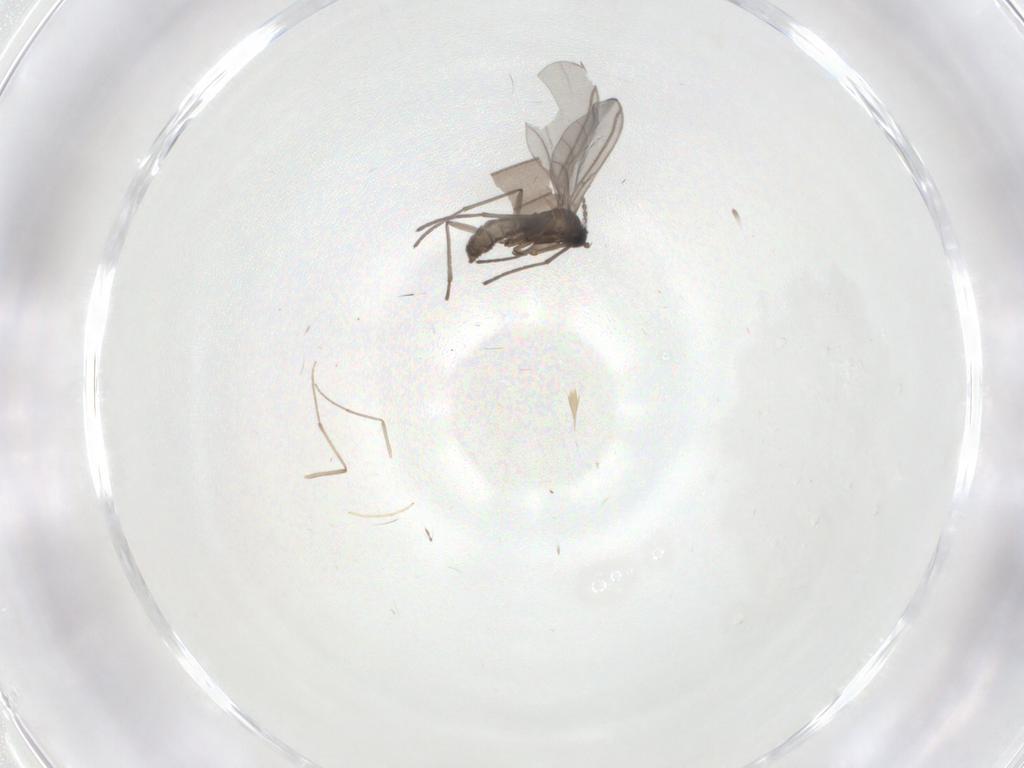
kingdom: Animalia
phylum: Arthropoda
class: Insecta
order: Diptera
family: Sciaridae
